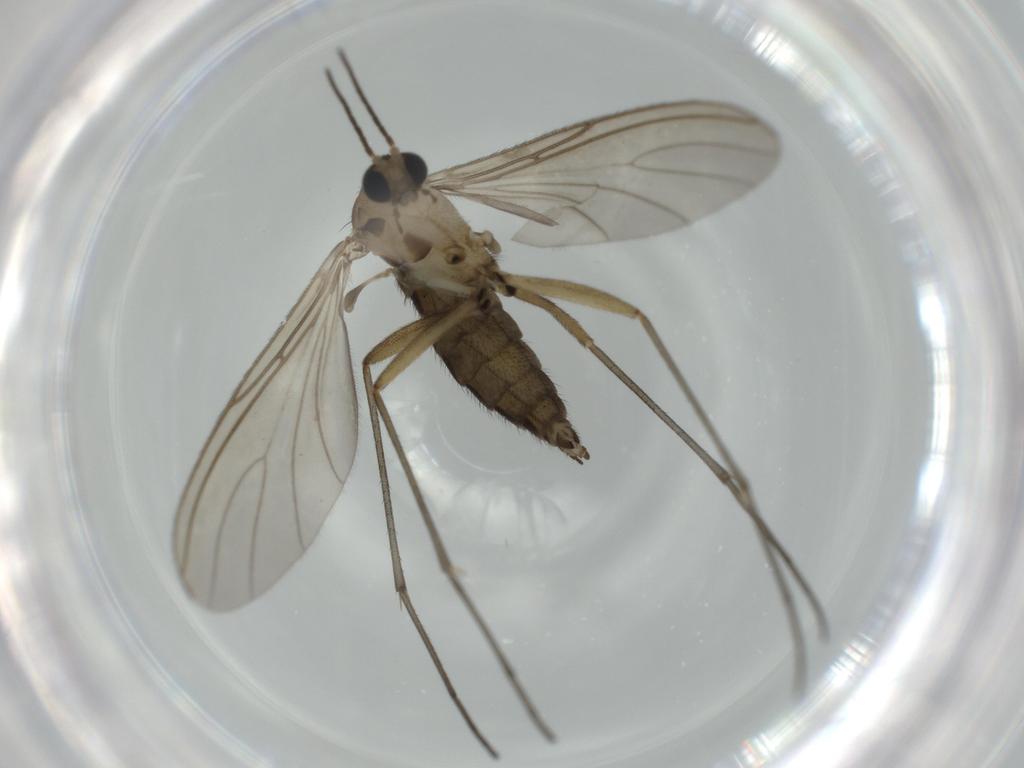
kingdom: Animalia
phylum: Arthropoda
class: Insecta
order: Diptera
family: Sciaridae
